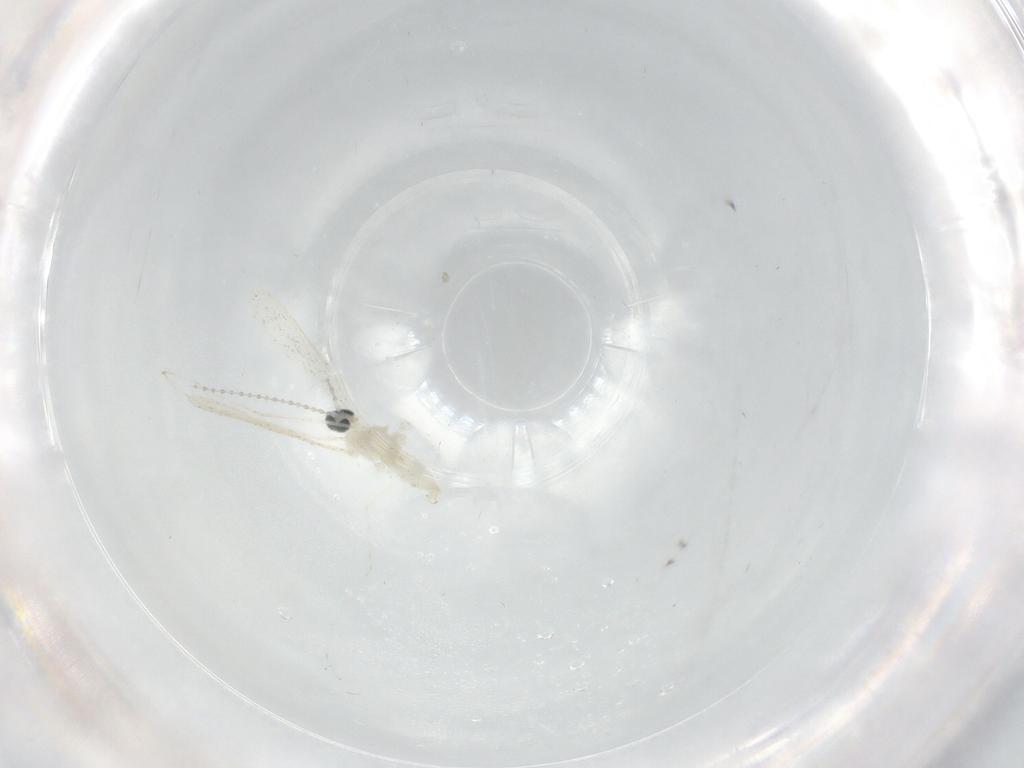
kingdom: Animalia
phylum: Arthropoda
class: Insecta
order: Diptera
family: Cecidomyiidae
